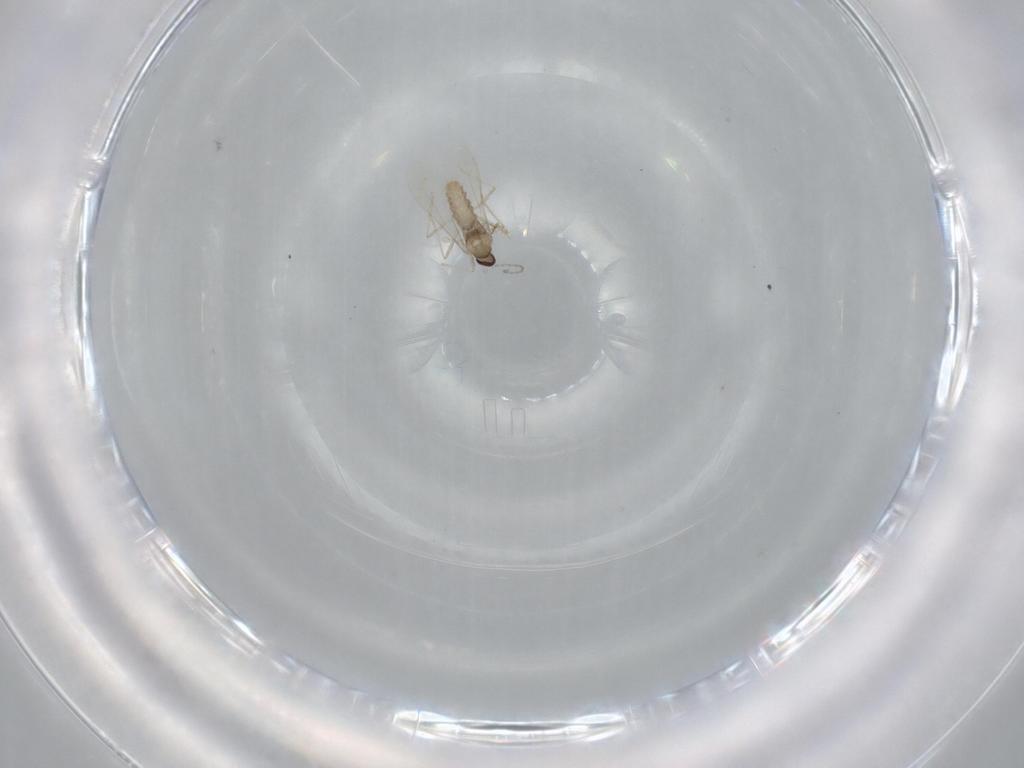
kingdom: Animalia
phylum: Arthropoda
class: Insecta
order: Diptera
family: Cecidomyiidae
